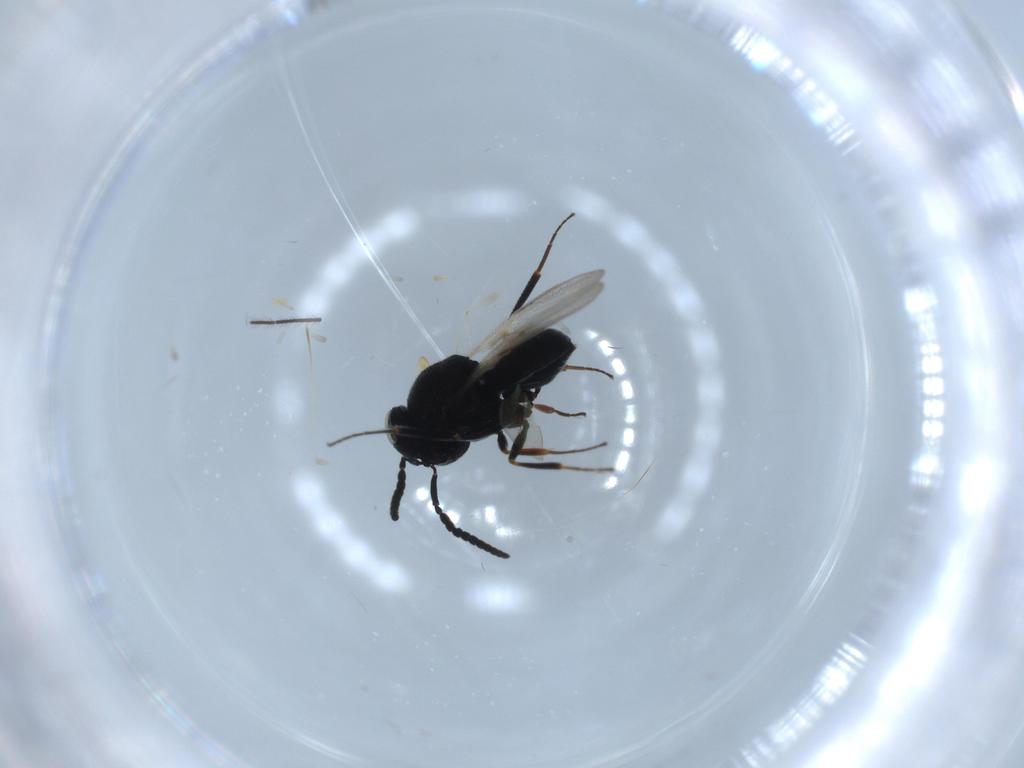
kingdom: Animalia
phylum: Arthropoda
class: Insecta
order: Hymenoptera
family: Scelionidae
